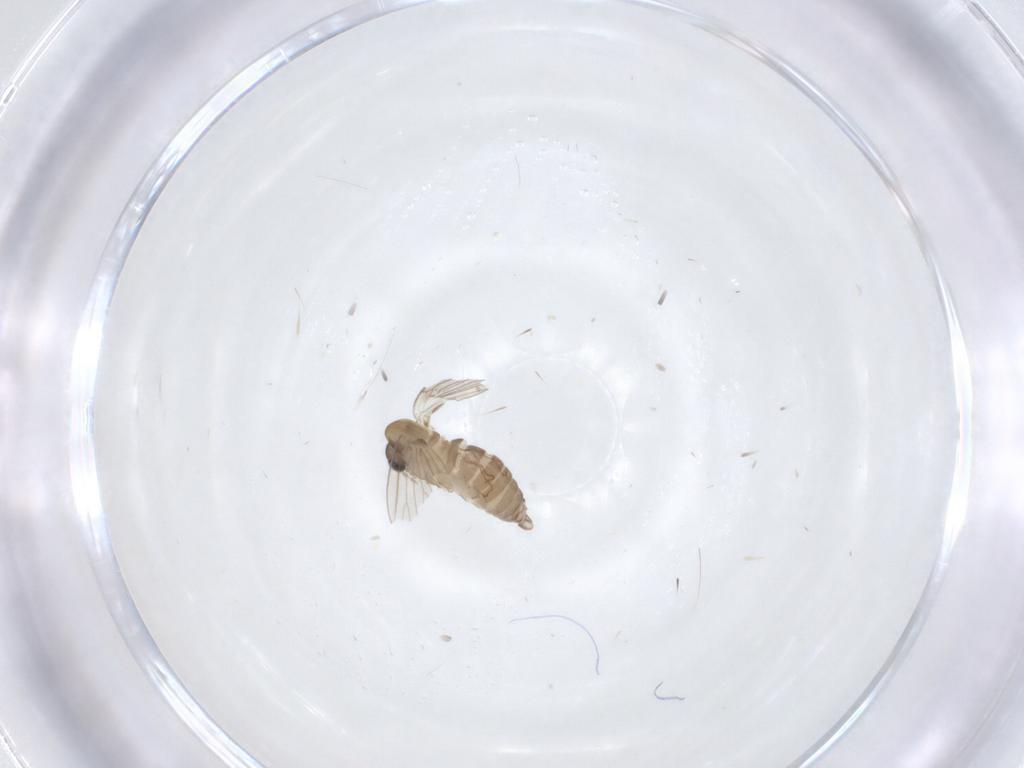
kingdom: Animalia
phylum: Arthropoda
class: Insecta
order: Diptera
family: Psychodidae
